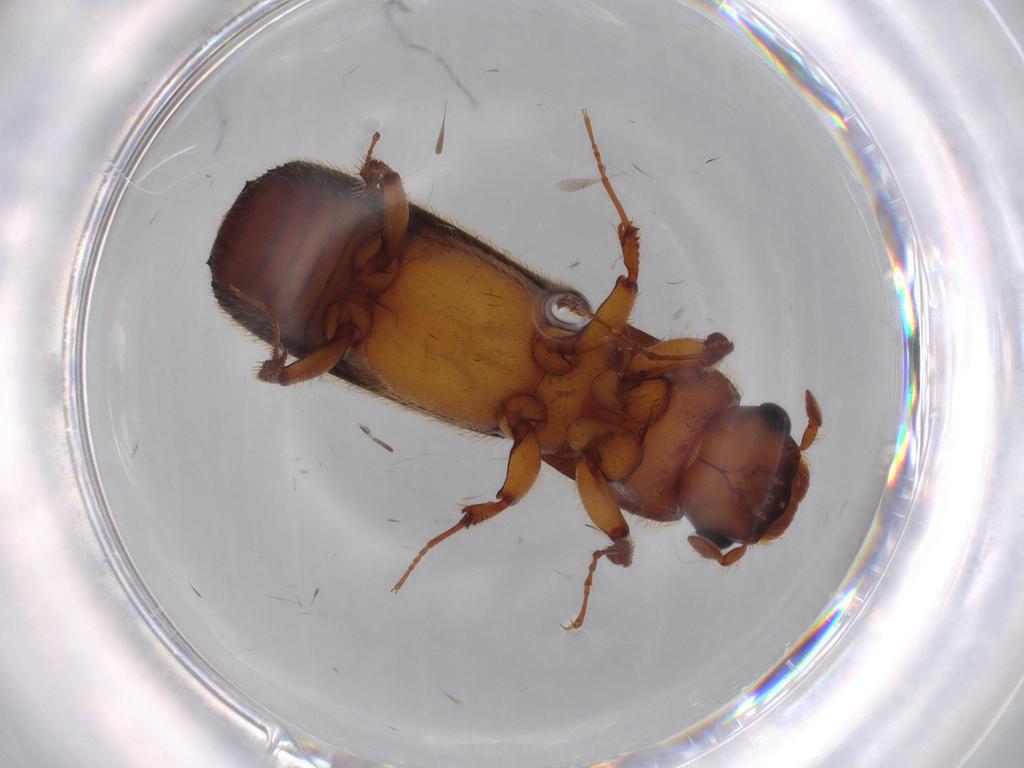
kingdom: Animalia
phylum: Arthropoda
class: Insecta
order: Coleoptera
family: Curculionidae
